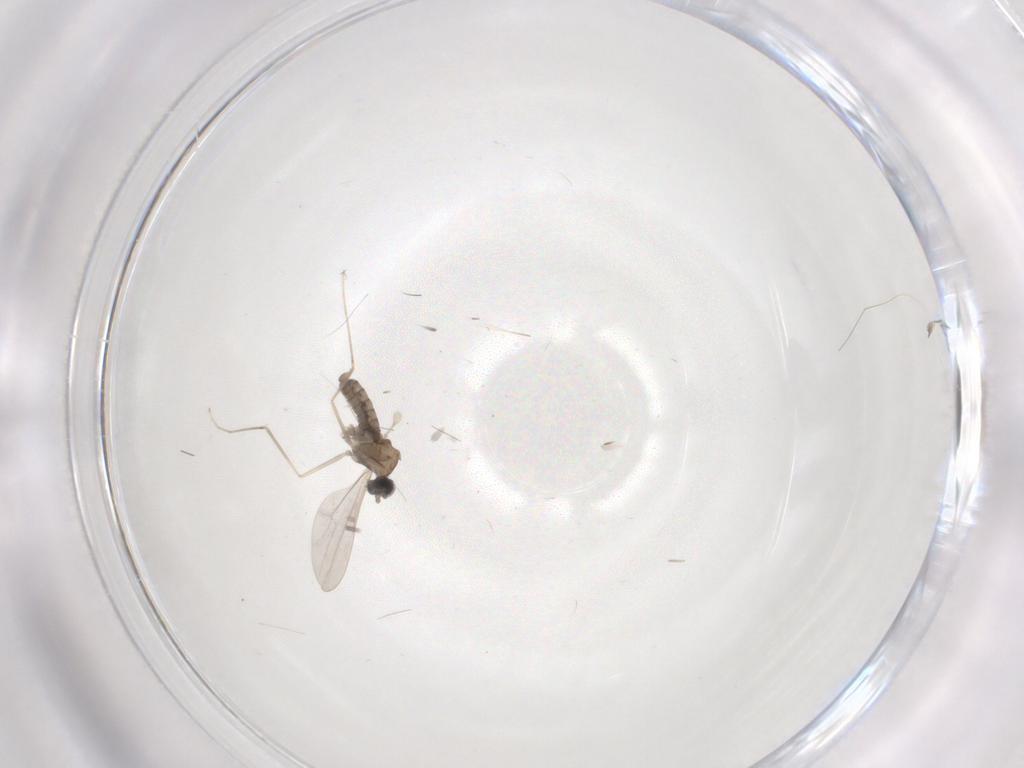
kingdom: Animalia
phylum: Arthropoda
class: Insecta
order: Diptera
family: Cecidomyiidae
